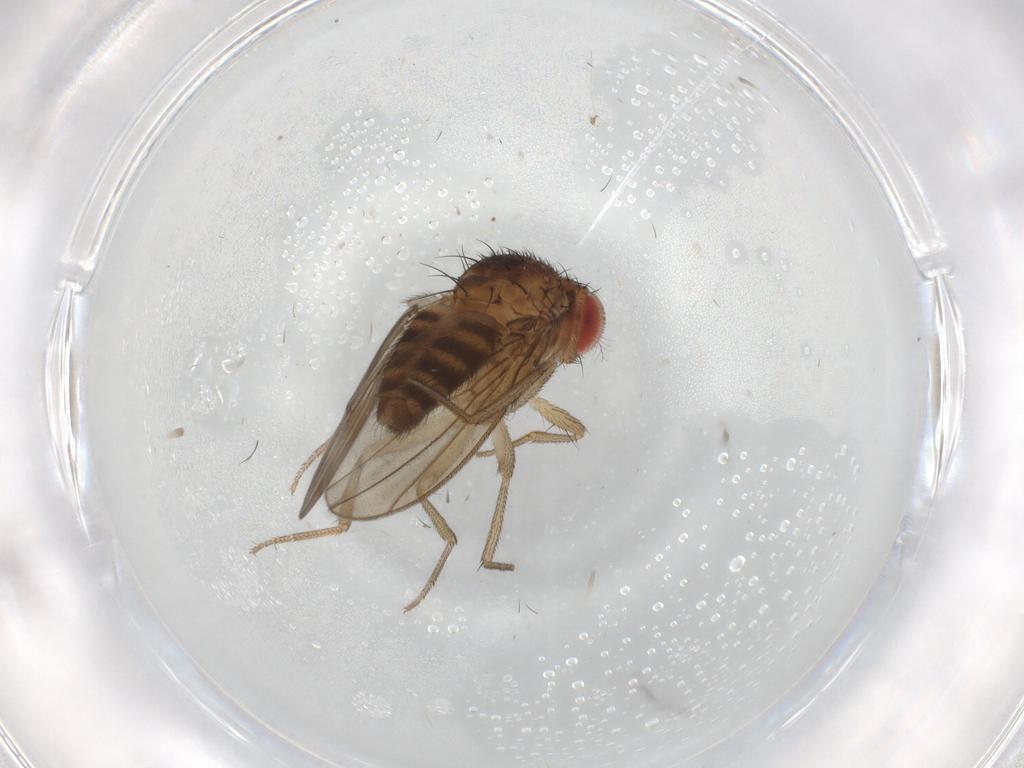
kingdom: Animalia
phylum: Arthropoda
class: Insecta
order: Diptera
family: Drosophilidae
